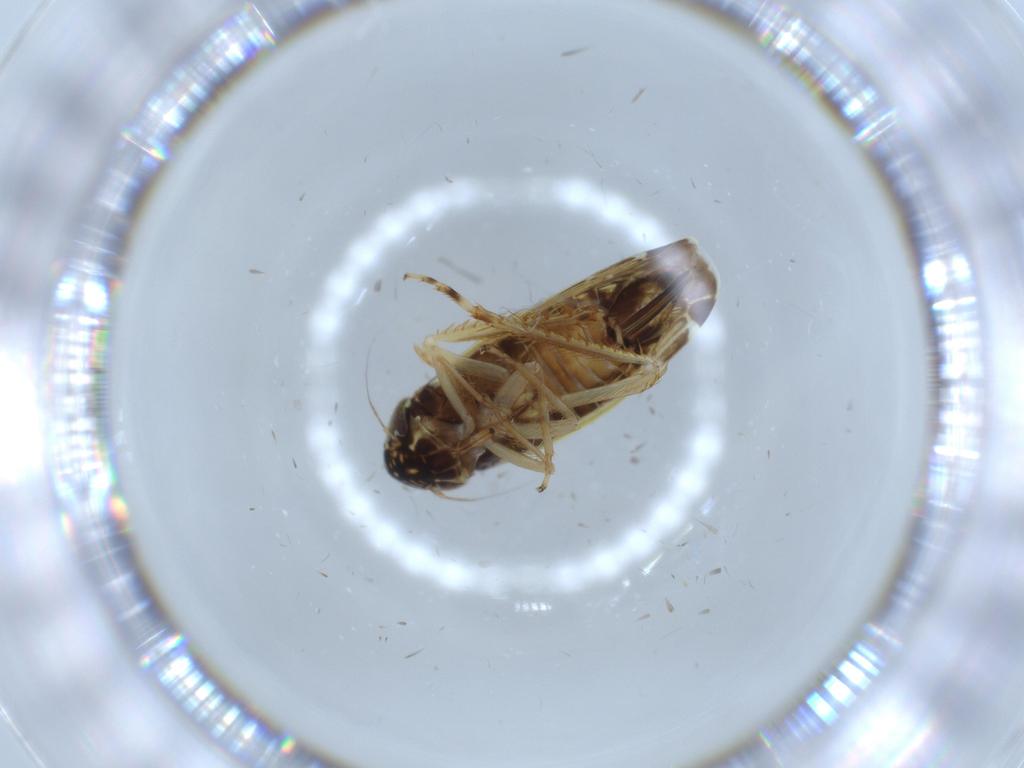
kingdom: Animalia
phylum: Arthropoda
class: Insecta
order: Hemiptera
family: Cicadellidae
